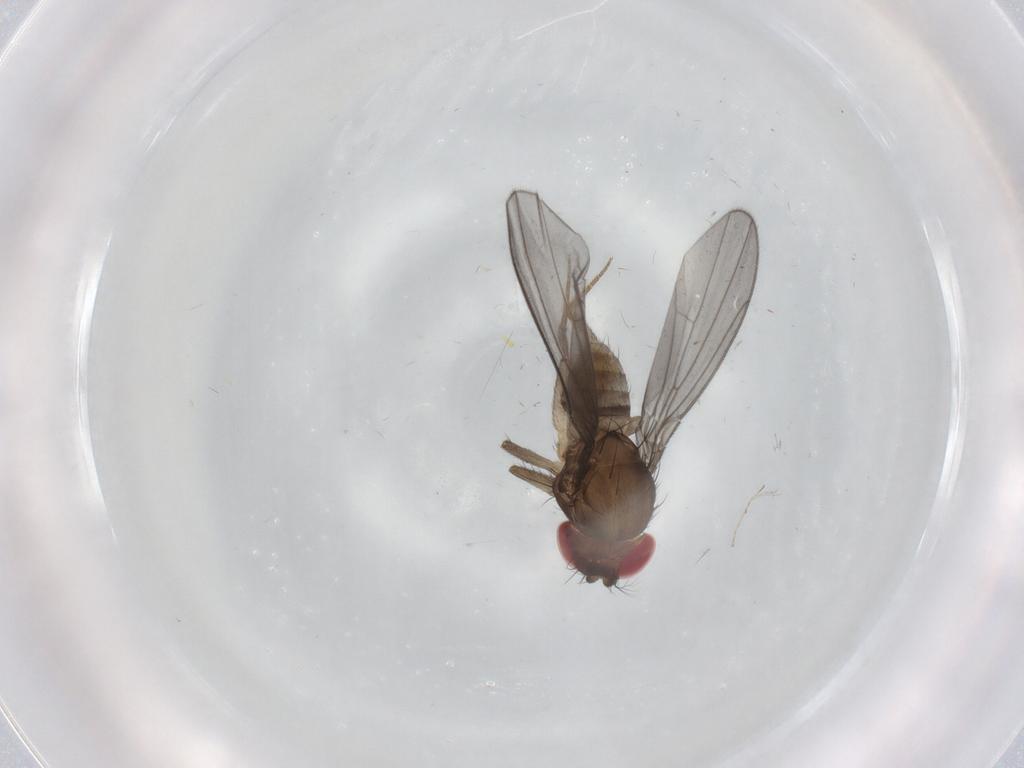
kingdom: Animalia
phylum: Arthropoda
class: Insecta
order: Diptera
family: Drosophilidae
